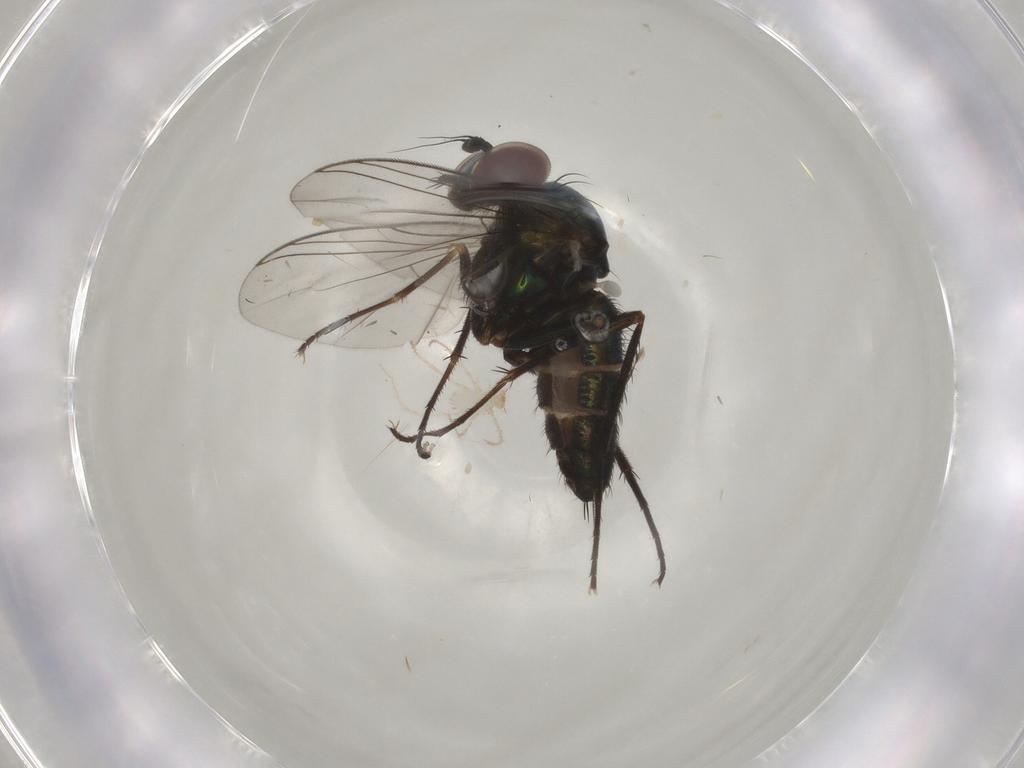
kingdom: Animalia
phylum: Arthropoda
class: Insecta
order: Diptera
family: Dolichopodidae
